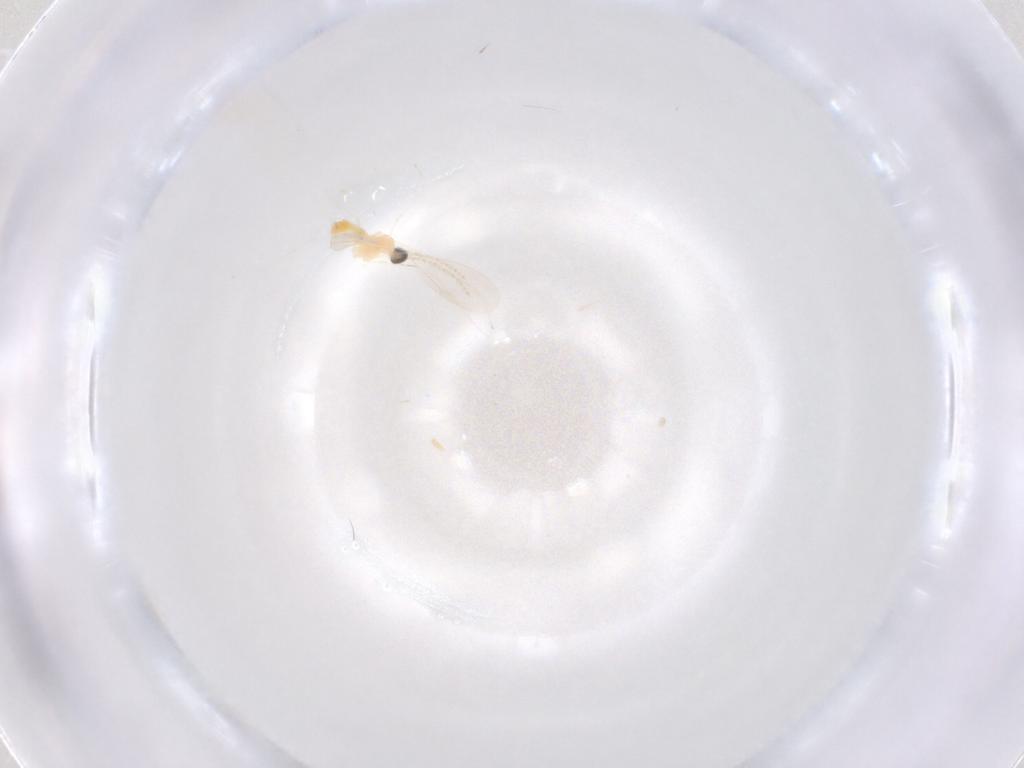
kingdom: Animalia
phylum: Arthropoda
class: Insecta
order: Diptera
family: Cecidomyiidae
